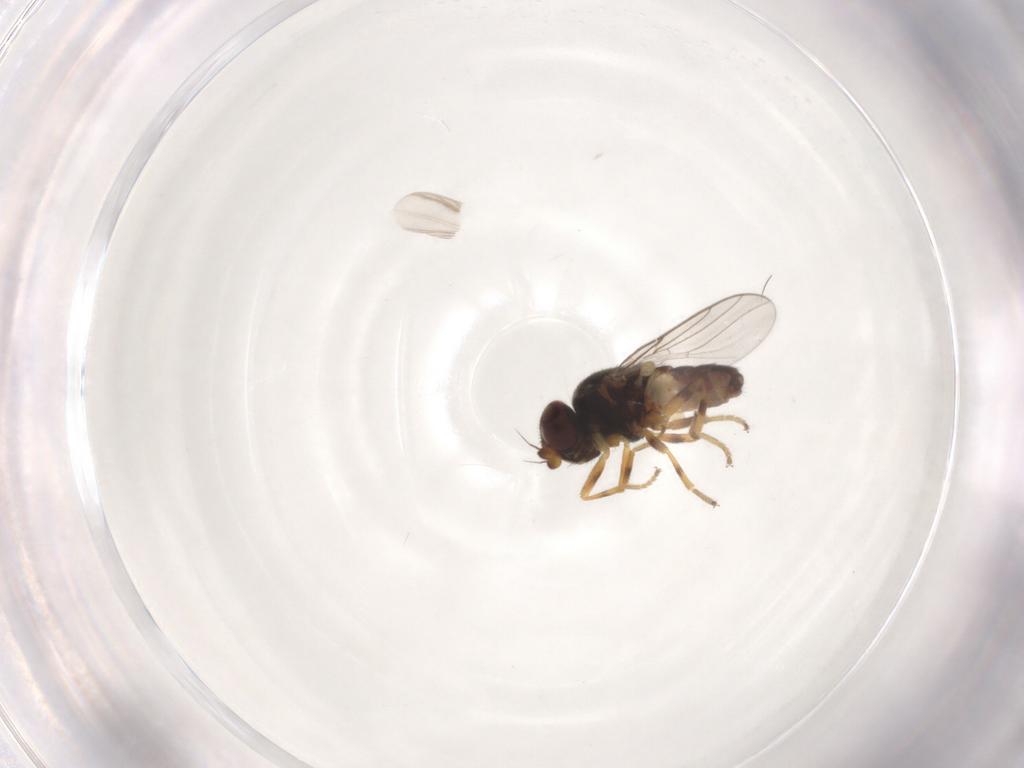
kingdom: Animalia
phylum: Arthropoda
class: Insecta
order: Diptera
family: Chloropidae
